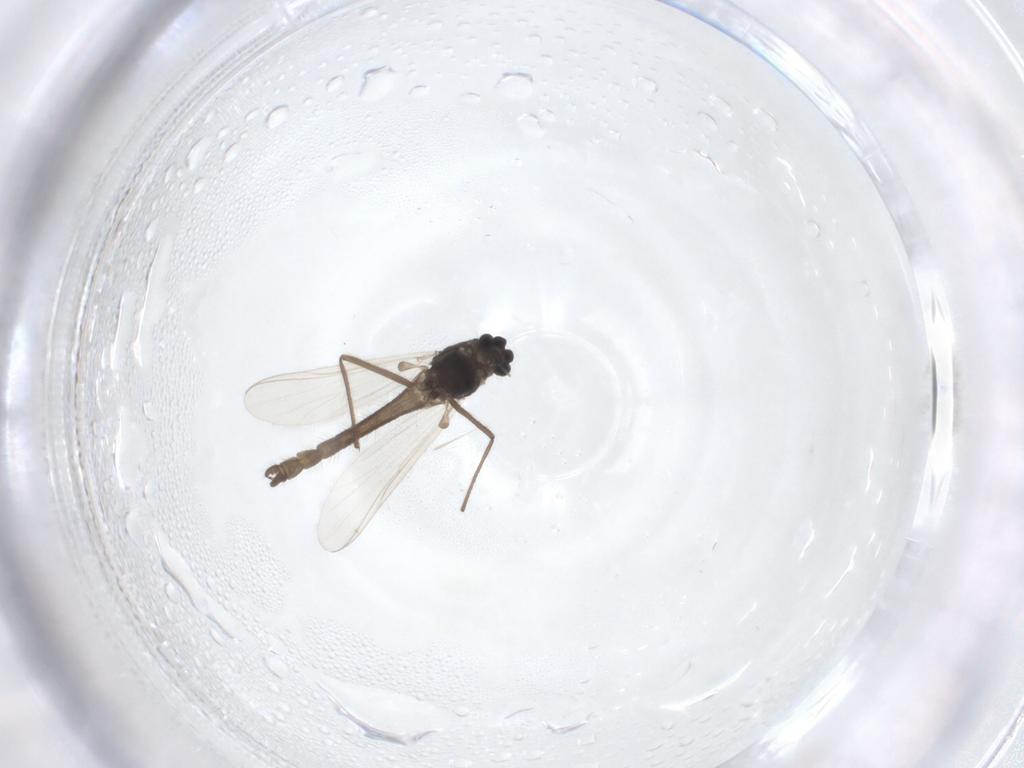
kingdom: Animalia
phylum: Arthropoda
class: Insecta
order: Diptera
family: Chironomidae
